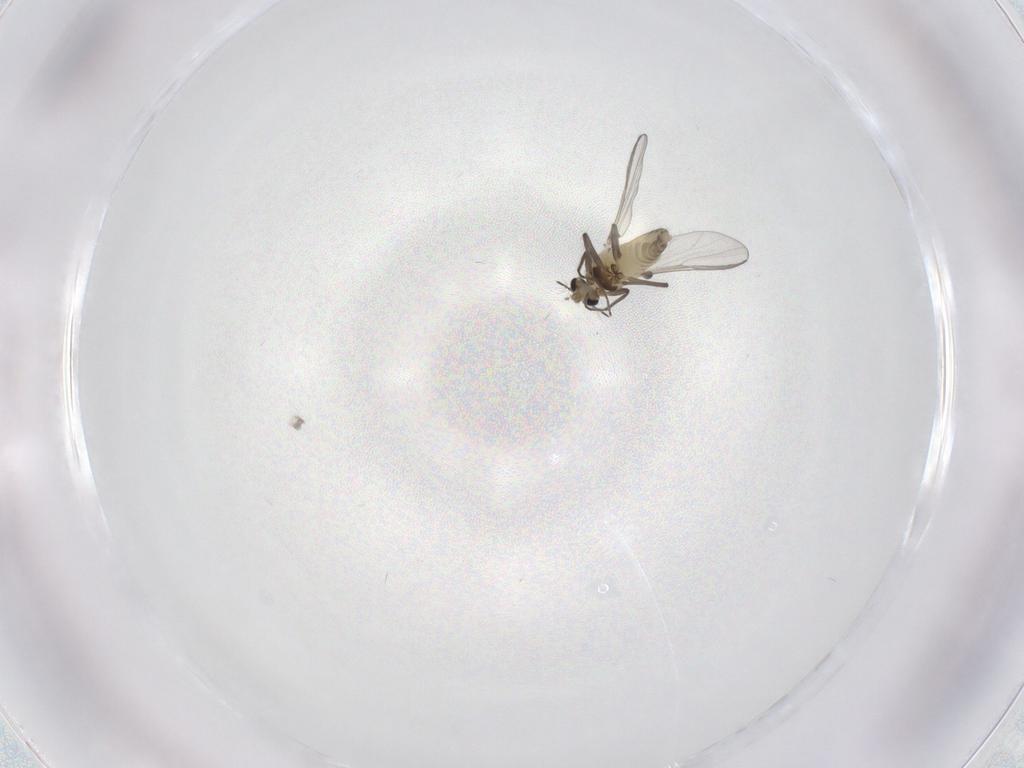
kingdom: Animalia
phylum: Arthropoda
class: Insecta
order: Diptera
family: Chironomidae
